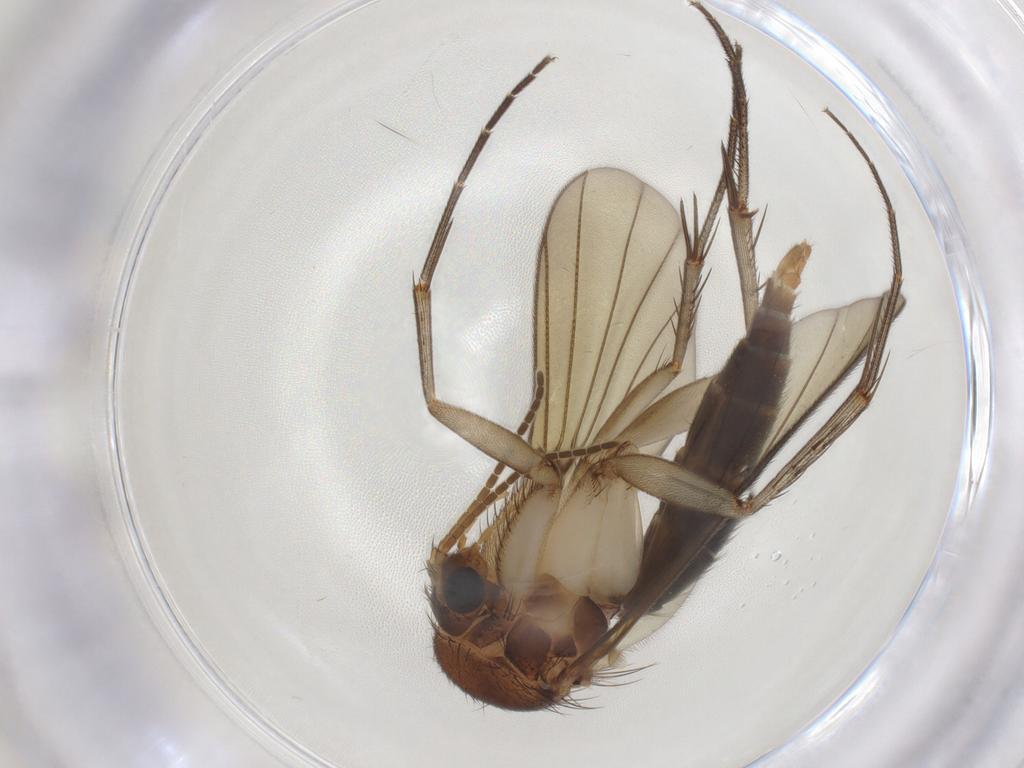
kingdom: Animalia
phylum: Arthropoda
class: Insecta
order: Diptera
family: Mycetophilidae
